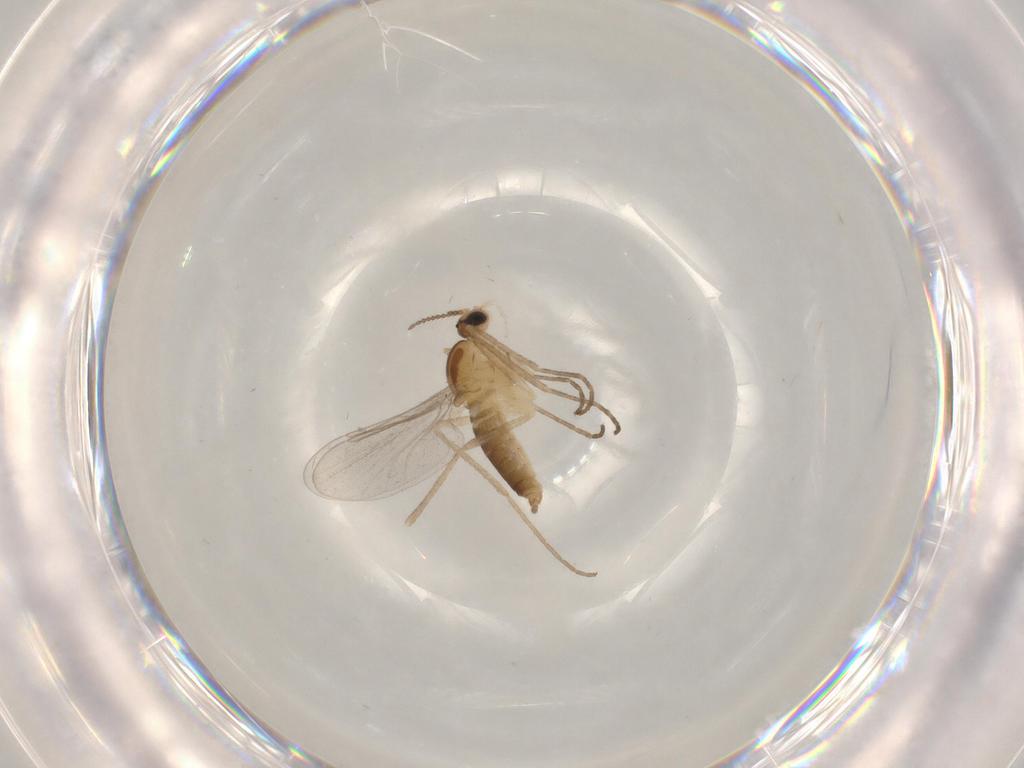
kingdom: Animalia
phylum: Arthropoda
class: Insecta
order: Diptera
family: Cecidomyiidae
